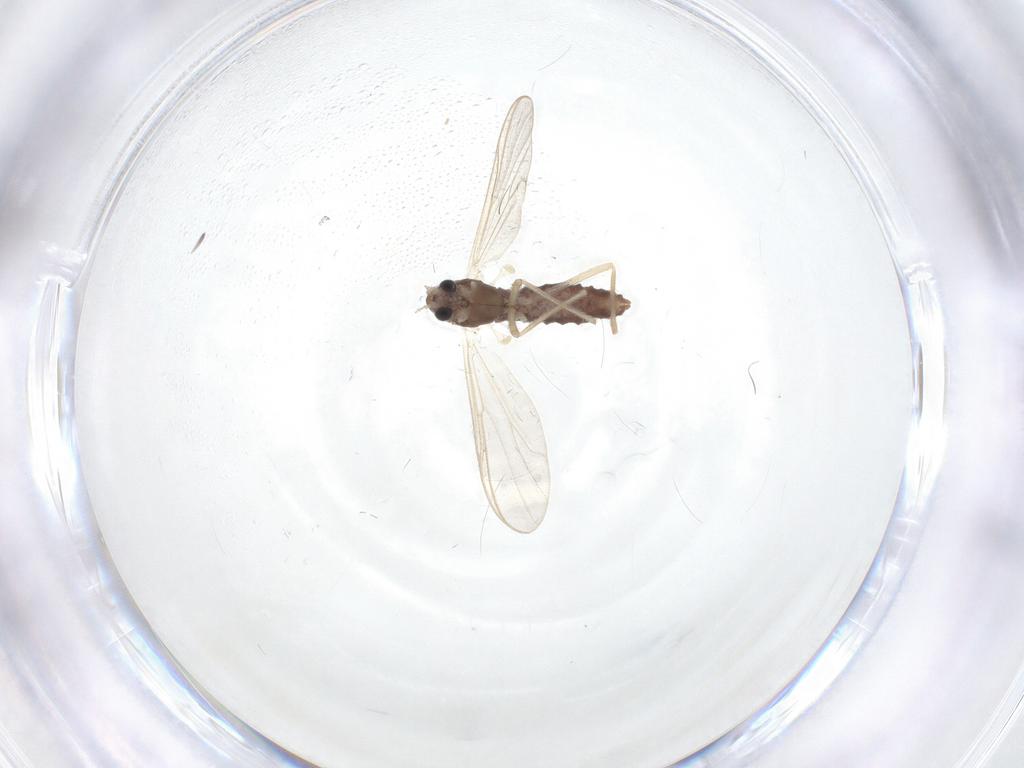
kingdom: Animalia
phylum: Arthropoda
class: Insecta
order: Diptera
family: Chironomidae
